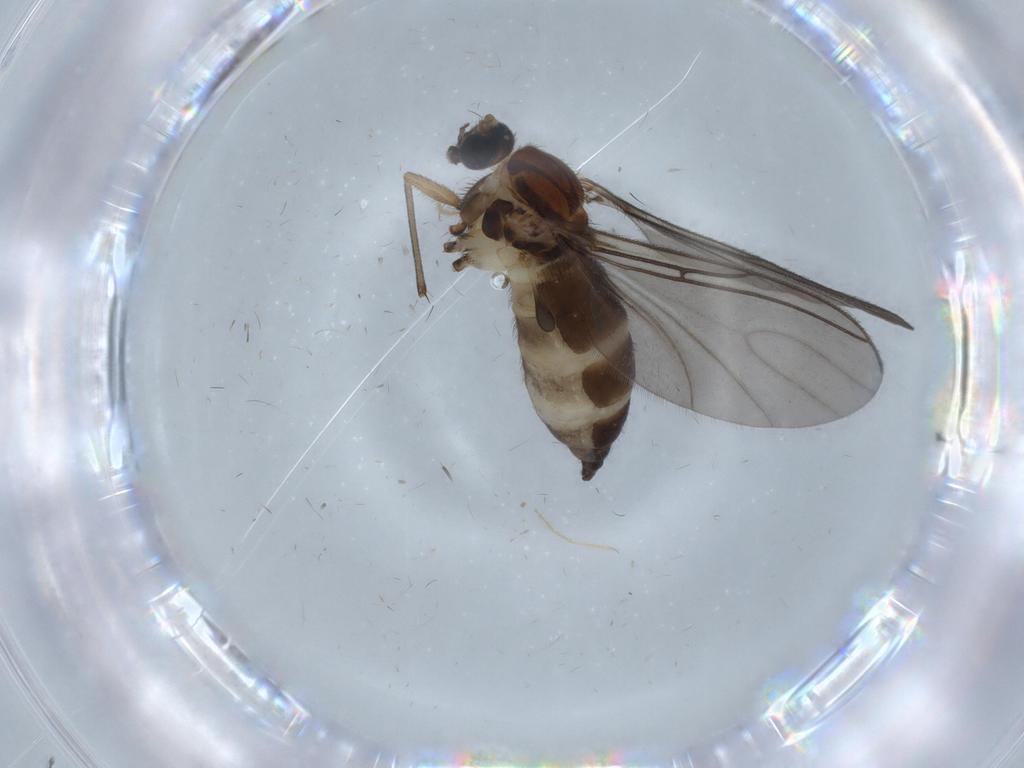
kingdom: Animalia
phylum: Arthropoda
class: Insecta
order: Diptera
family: Sciaridae
